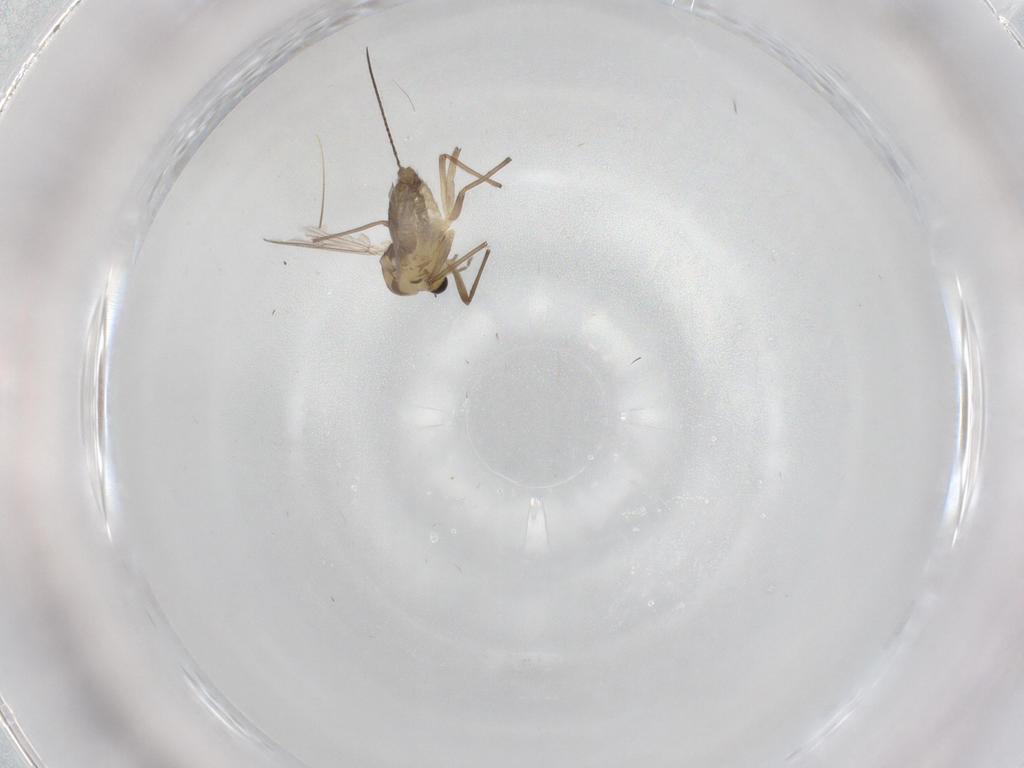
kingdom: Animalia
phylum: Arthropoda
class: Insecta
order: Diptera
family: Chironomidae
